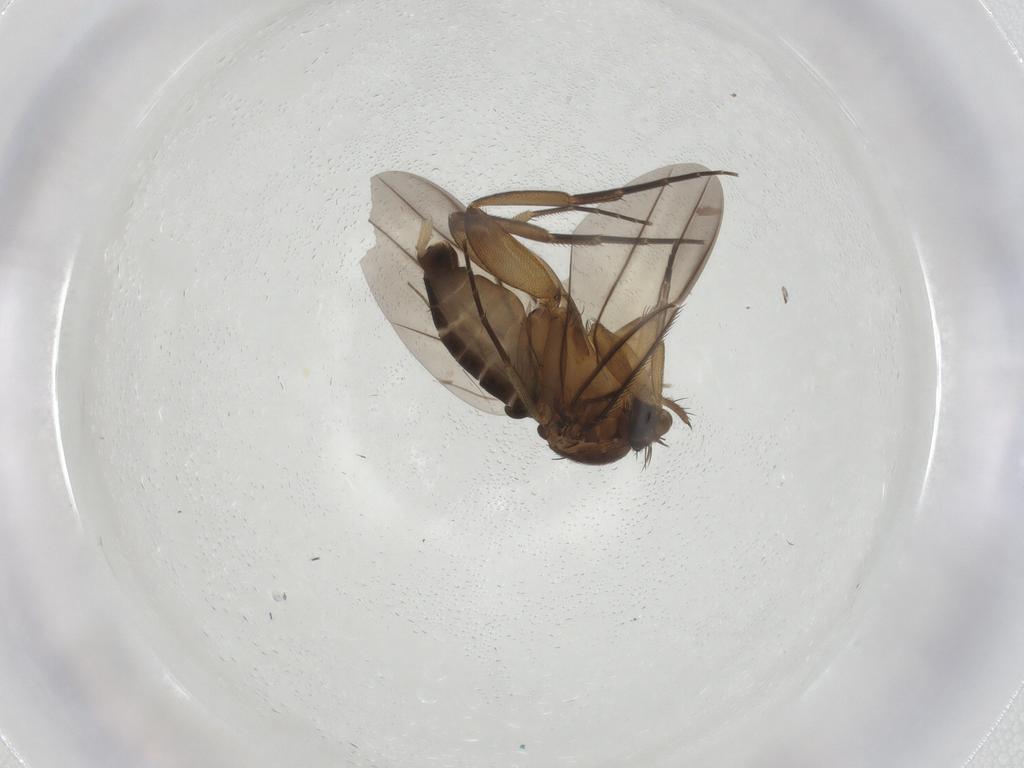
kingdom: Animalia
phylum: Arthropoda
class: Insecta
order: Diptera
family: Phoridae
